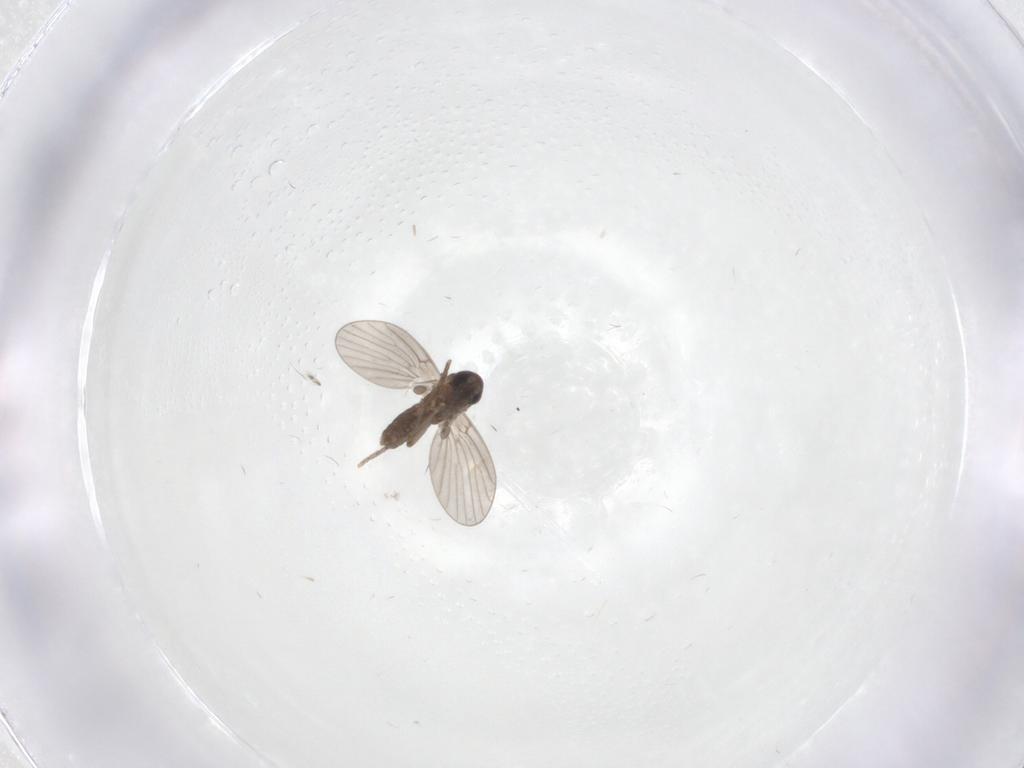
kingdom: Animalia
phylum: Arthropoda
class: Insecta
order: Diptera
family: Cecidomyiidae
